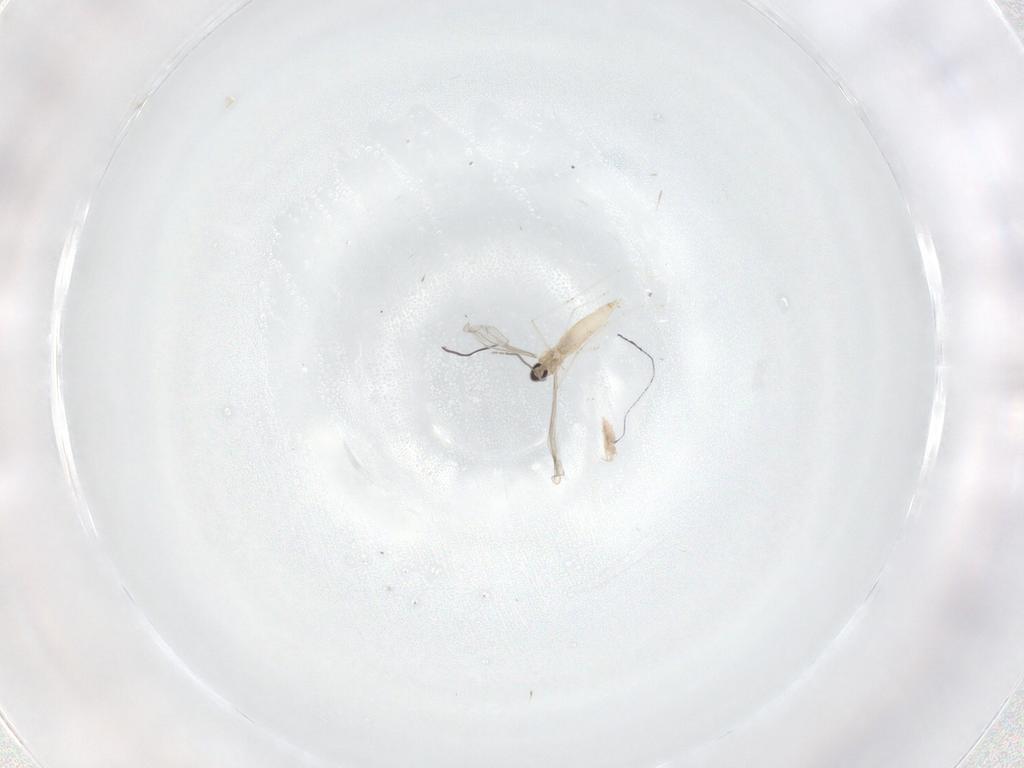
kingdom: Animalia
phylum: Arthropoda
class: Insecta
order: Diptera
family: Cecidomyiidae
